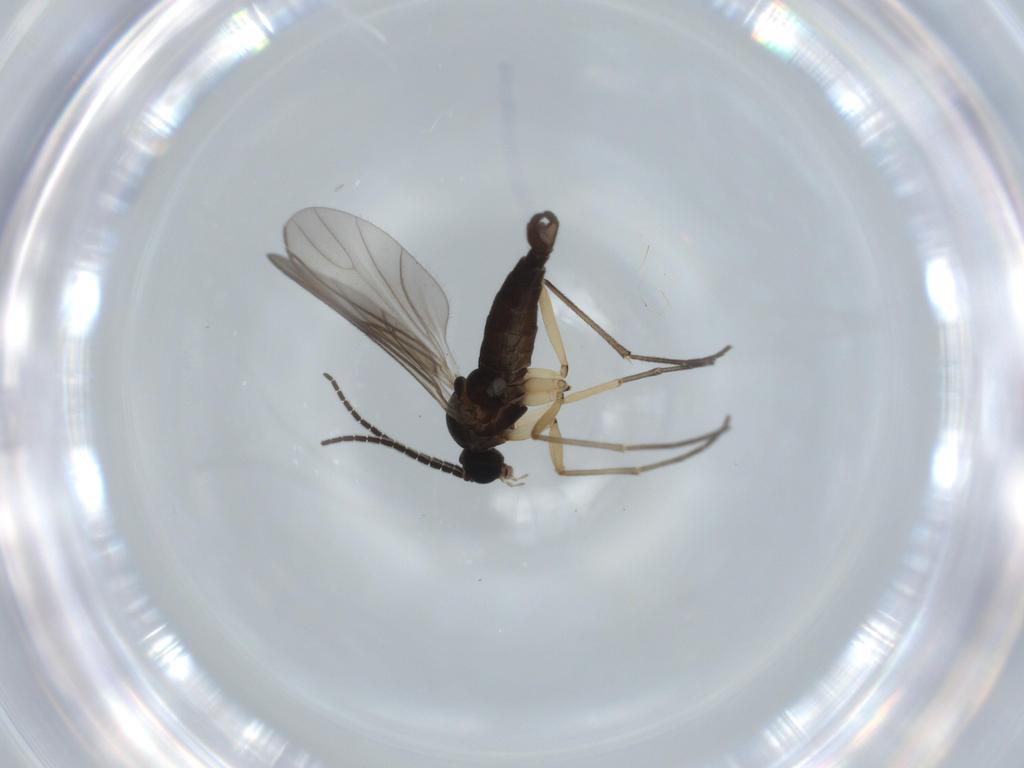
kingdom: Animalia
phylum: Arthropoda
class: Insecta
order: Diptera
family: Sciaridae
